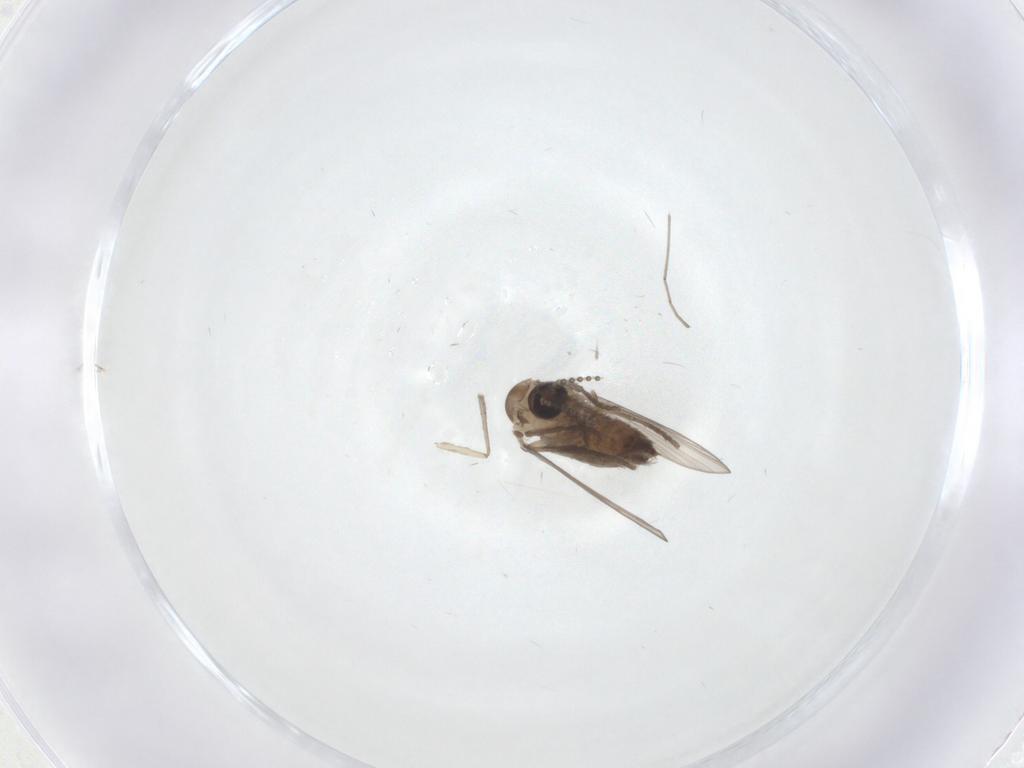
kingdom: Animalia
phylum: Arthropoda
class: Insecta
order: Diptera
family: Psychodidae
